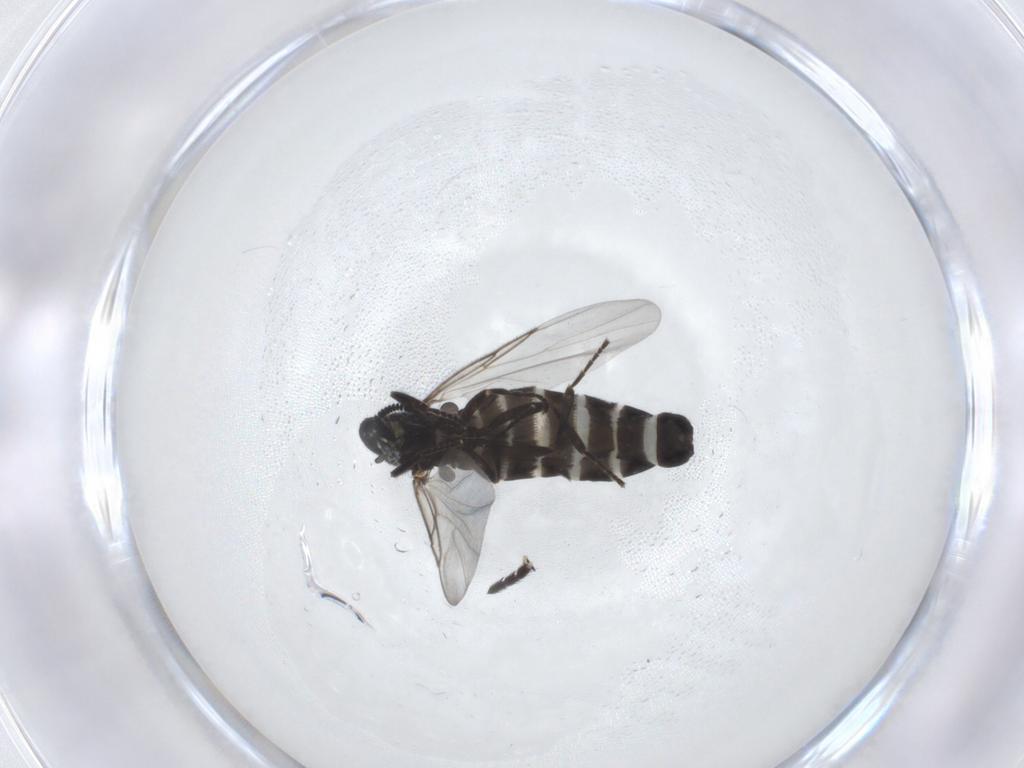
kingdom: Animalia
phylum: Arthropoda
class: Insecta
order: Diptera
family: Scatopsidae
